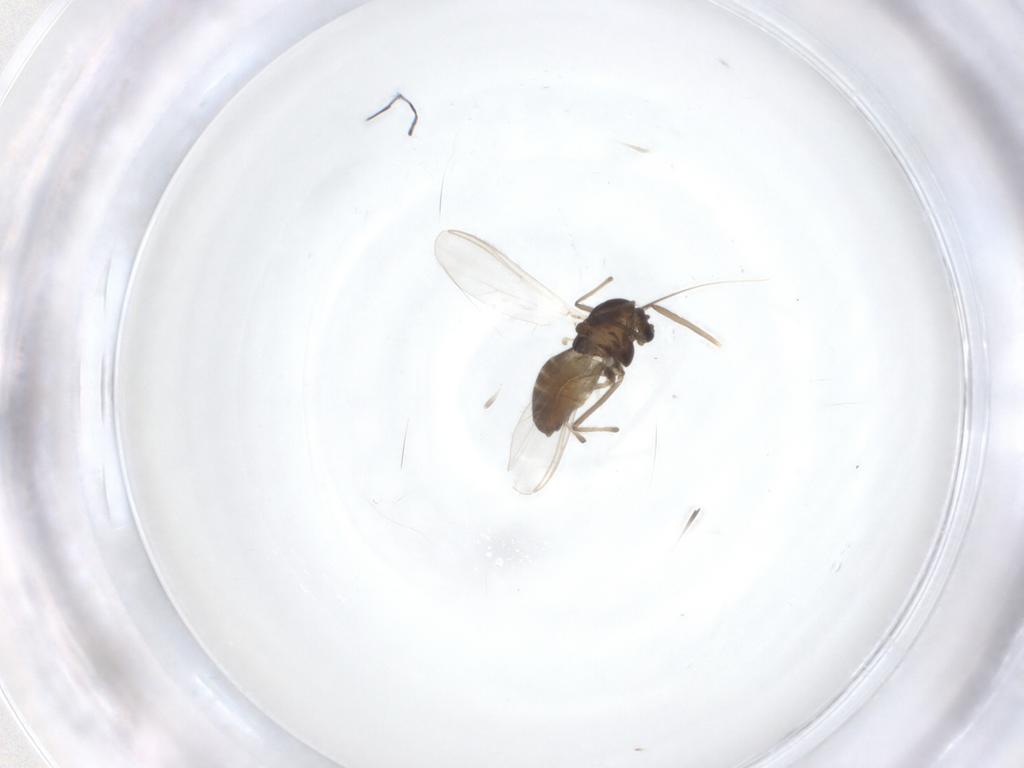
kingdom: Animalia
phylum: Arthropoda
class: Insecta
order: Diptera
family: Chironomidae
